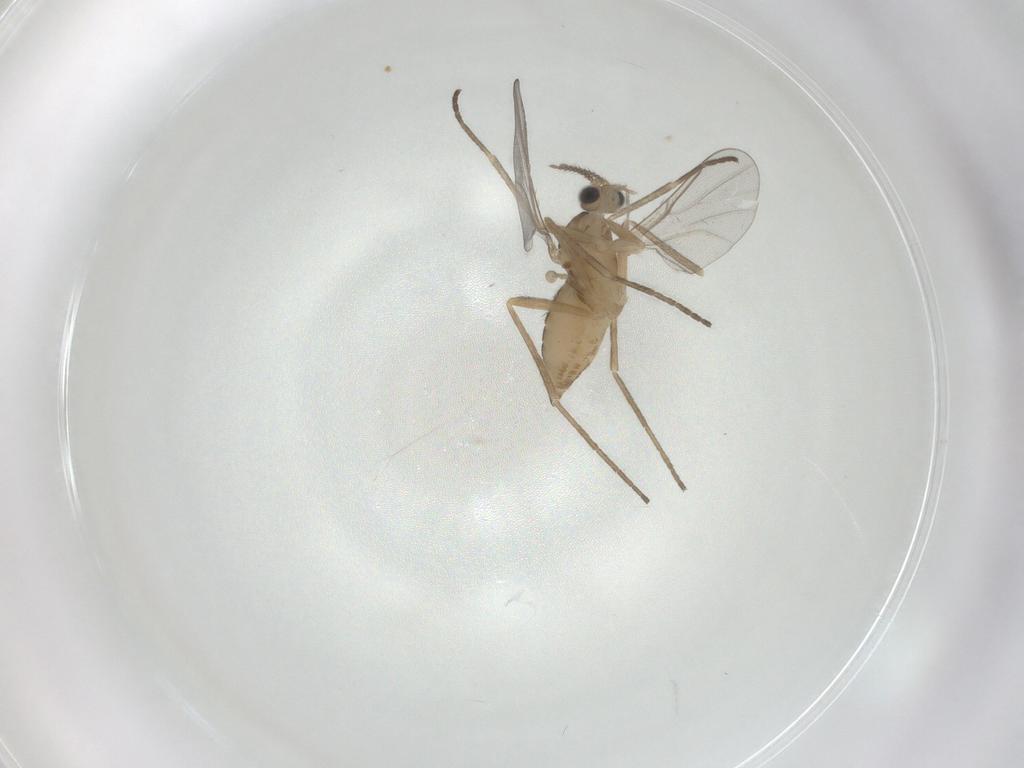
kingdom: Animalia
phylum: Arthropoda
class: Insecta
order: Diptera
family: Cecidomyiidae
